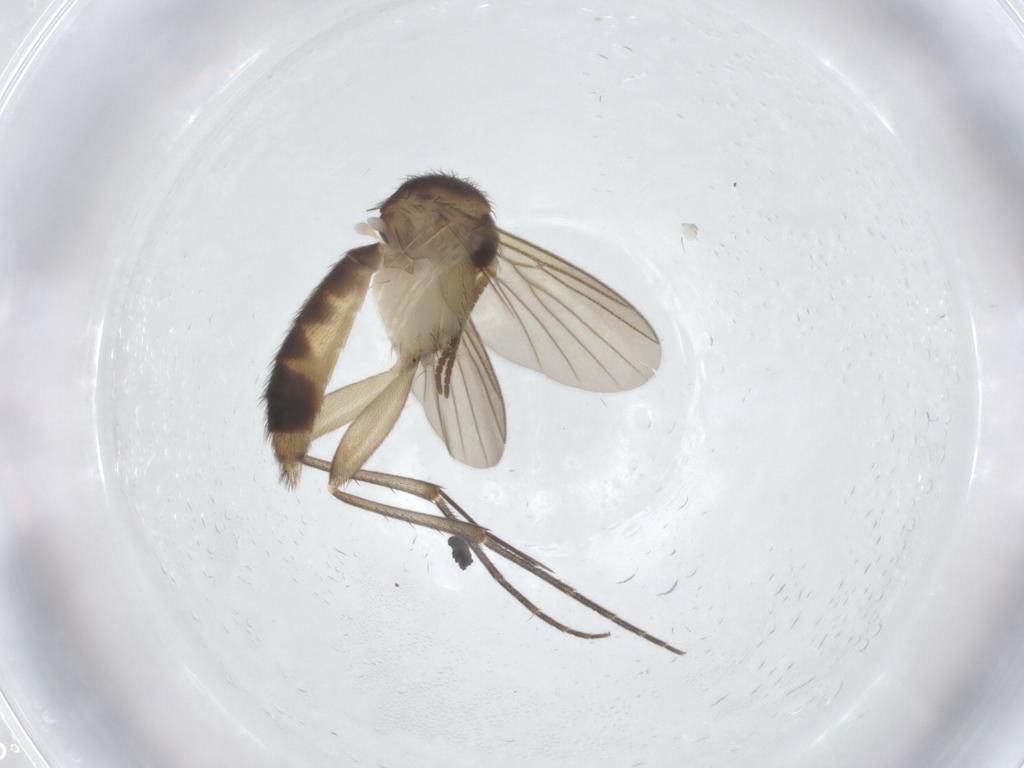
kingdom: Animalia
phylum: Arthropoda
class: Insecta
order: Diptera
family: Mycetophilidae
